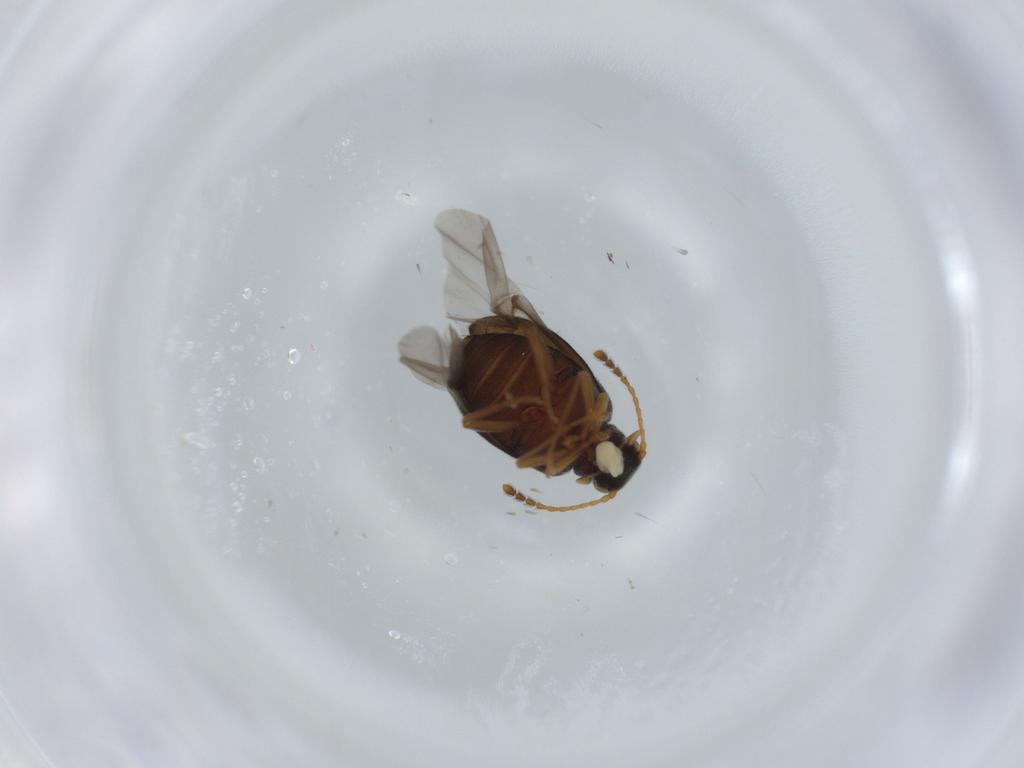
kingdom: Animalia
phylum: Arthropoda
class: Insecta
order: Coleoptera
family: Aderidae
